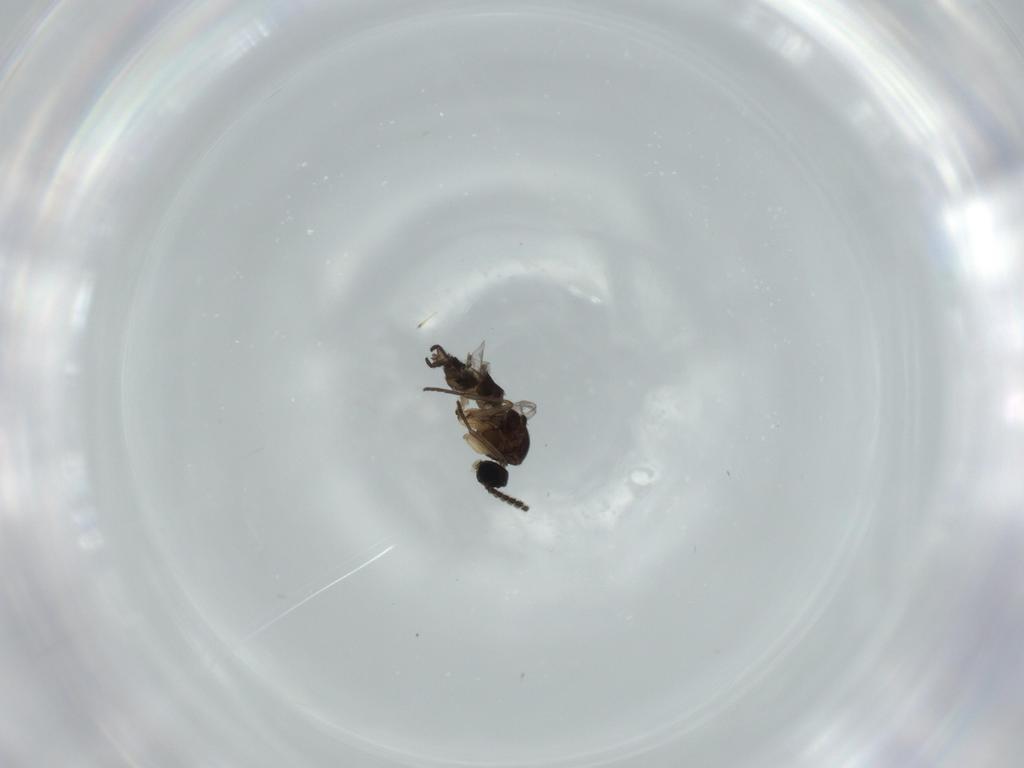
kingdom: Animalia
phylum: Arthropoda
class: Insecta
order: Diptera
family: Sciaridae
